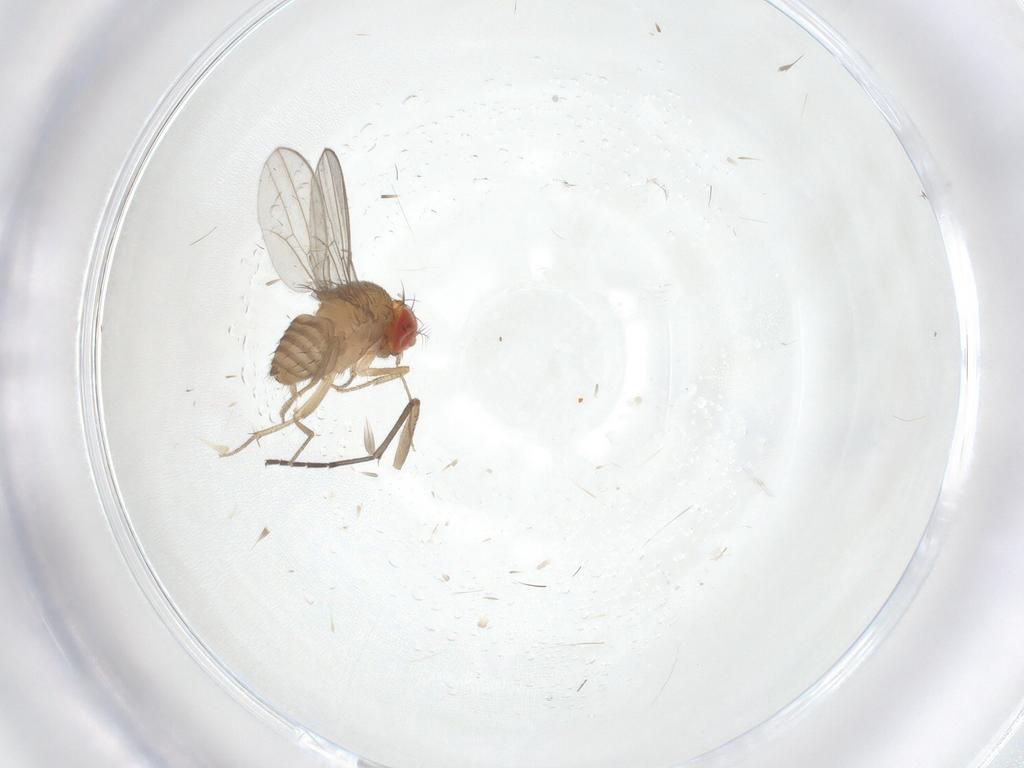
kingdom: Animalia
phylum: Arthropoda
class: Insecta
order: Diptera
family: Drosophilidae
